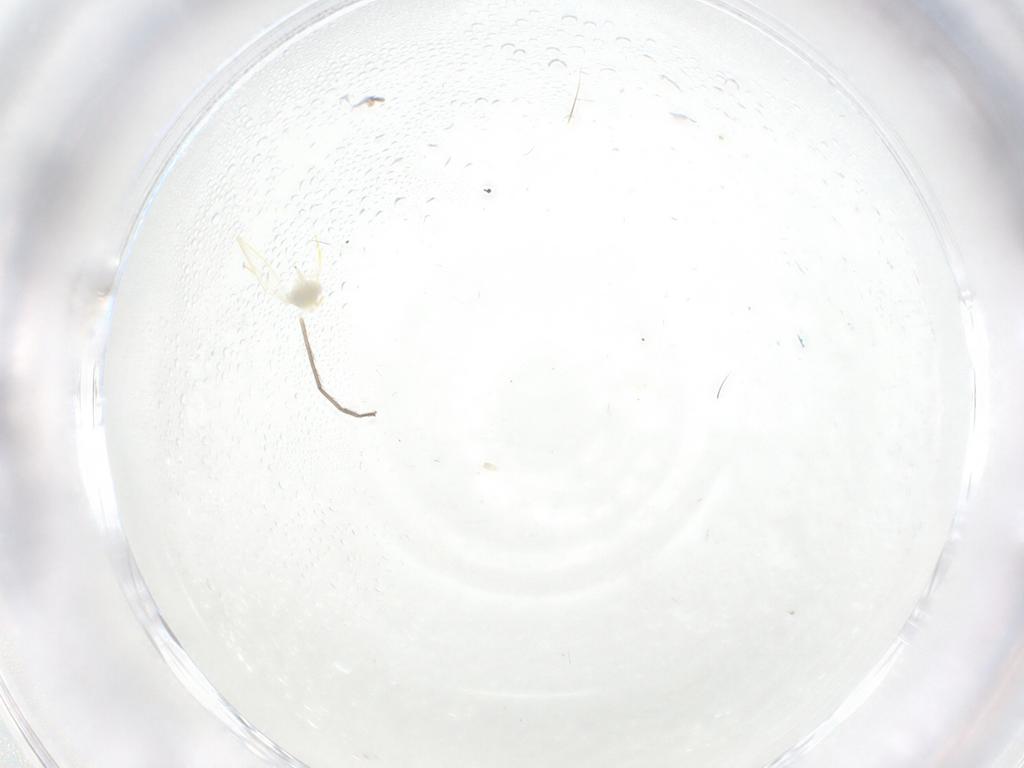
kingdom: Animalia
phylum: Arthropoda
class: Insecta
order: Hemiptera
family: Aleyrodidae
